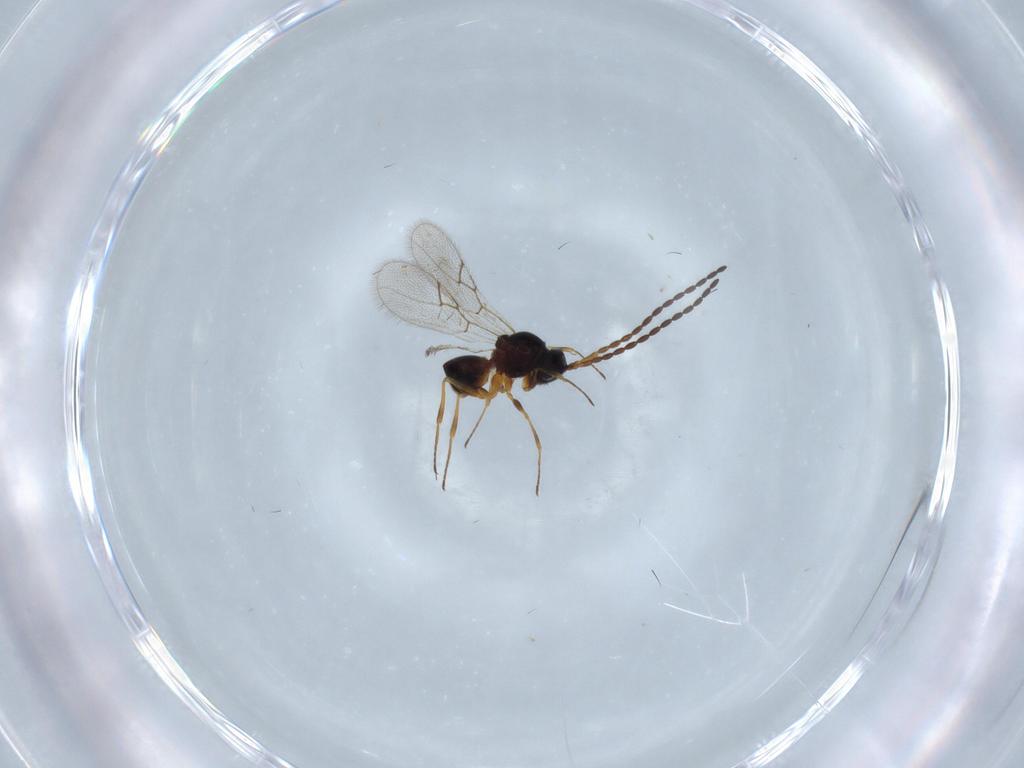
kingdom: Animalia
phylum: Arthropoda
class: Insecta
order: Hymenoptera
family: Figitidae
